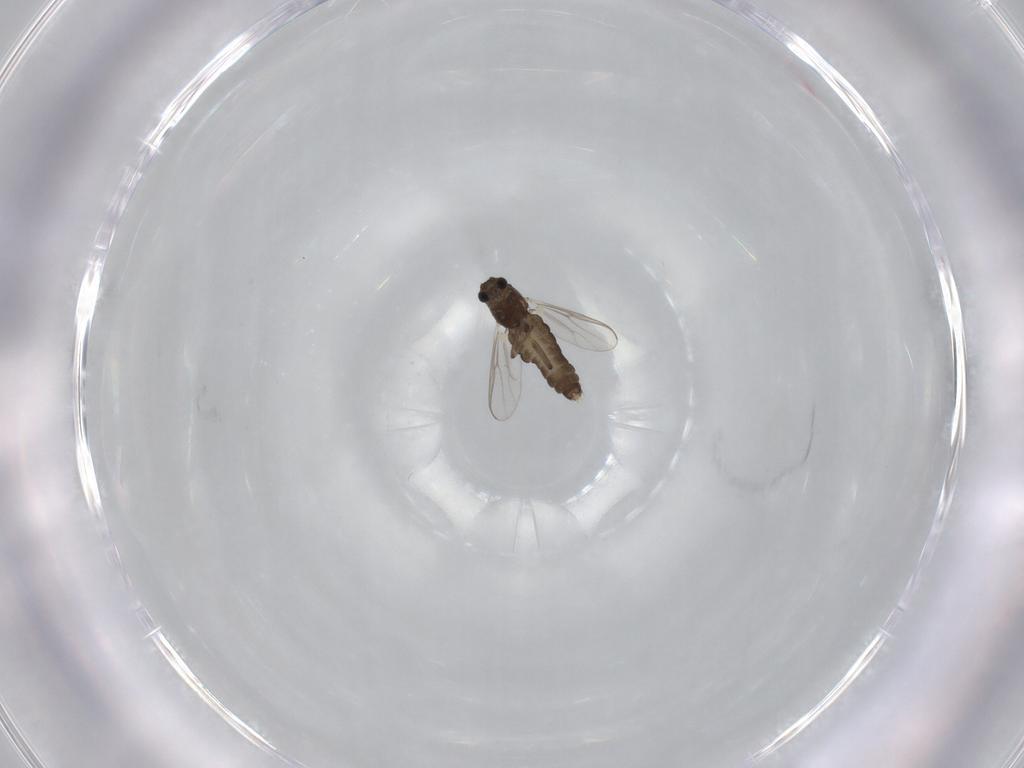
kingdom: Animalia
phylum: Arthropoda
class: Insecta
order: Diptera
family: Chironomidae
